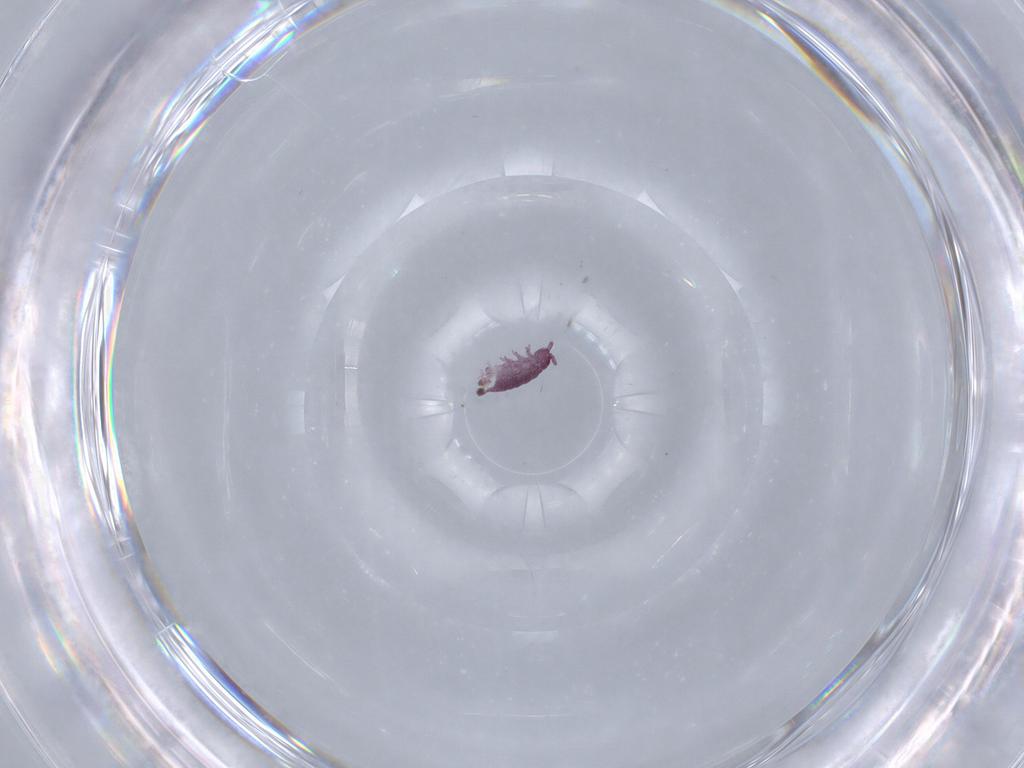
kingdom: Animalia
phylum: Arthropoda
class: Collembola
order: Poduromorpha
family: Brachystomellidae
